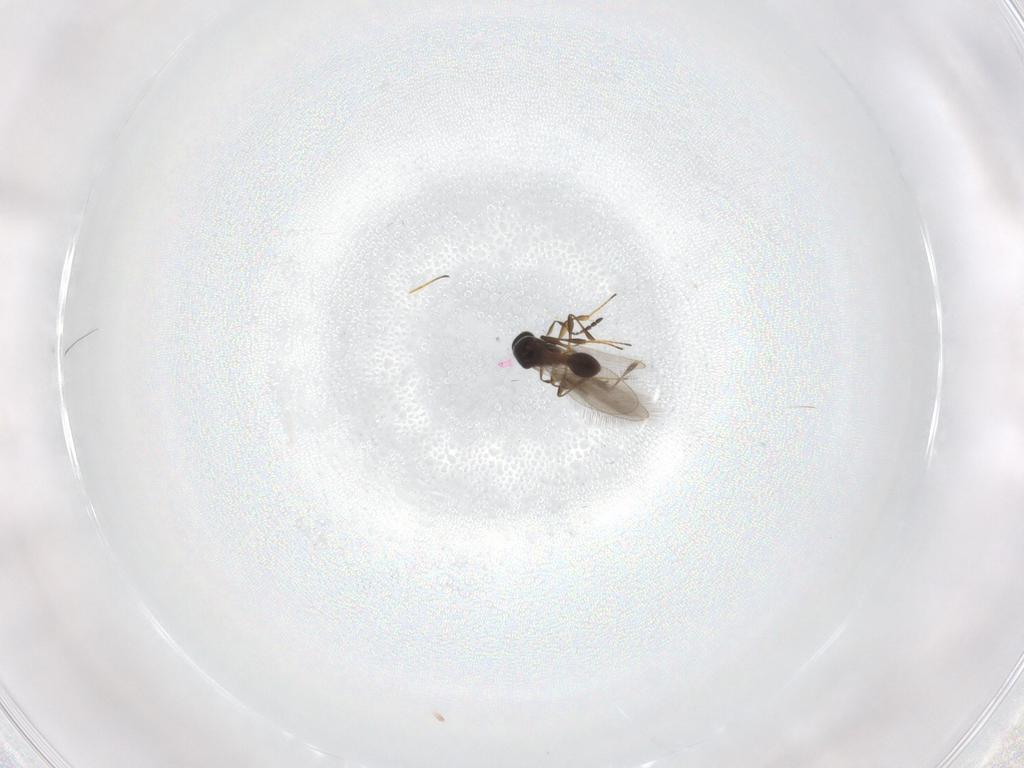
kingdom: Animalia
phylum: Arthropoda
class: Insecta
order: Hymenoptera
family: Platygastridae
